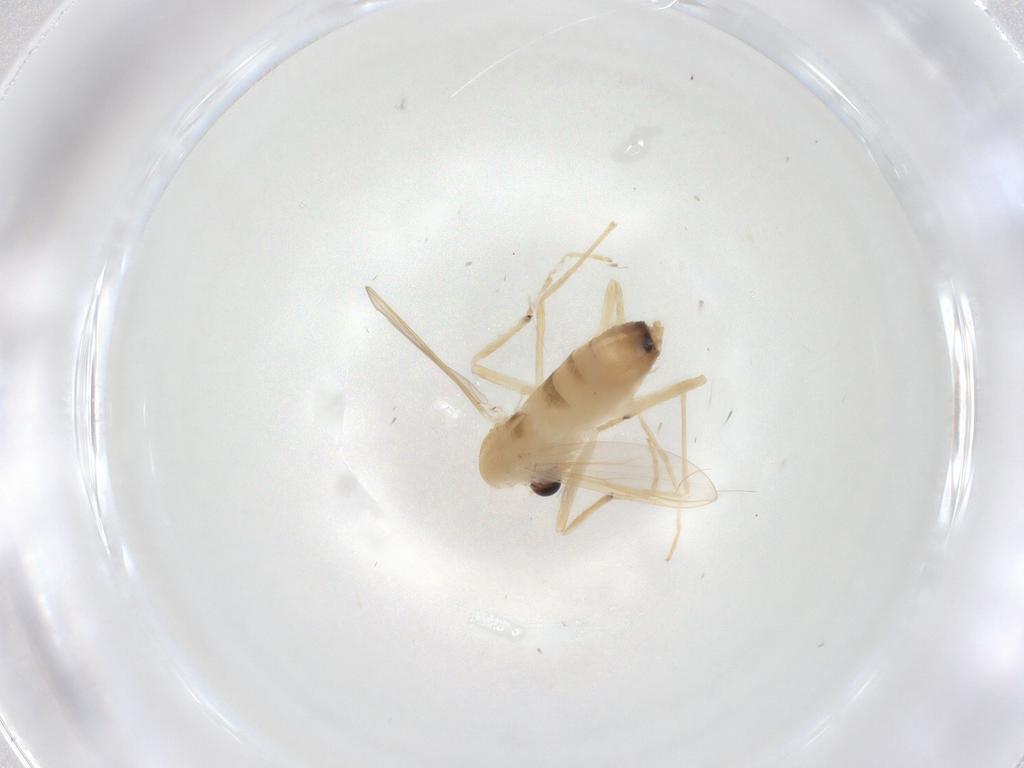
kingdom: Animalia
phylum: Arthropoda
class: Insecta
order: Diptera
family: Chironomidae
